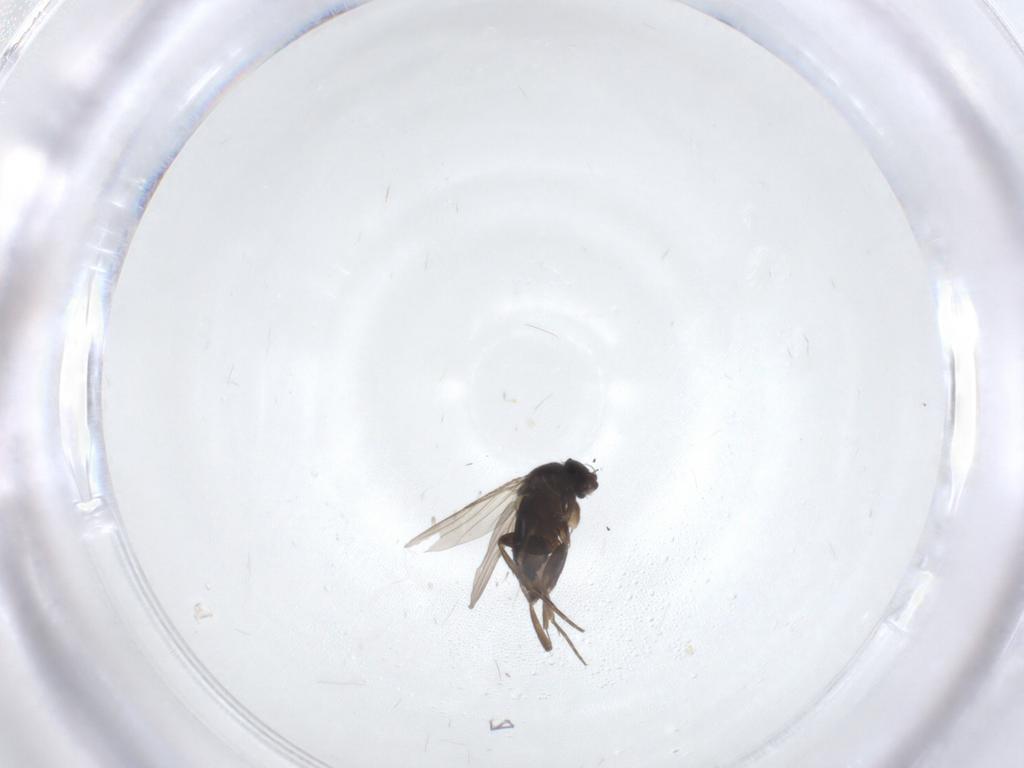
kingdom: Animalia
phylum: Arthropoda
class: Insecta
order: Diptera
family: Phoridae
